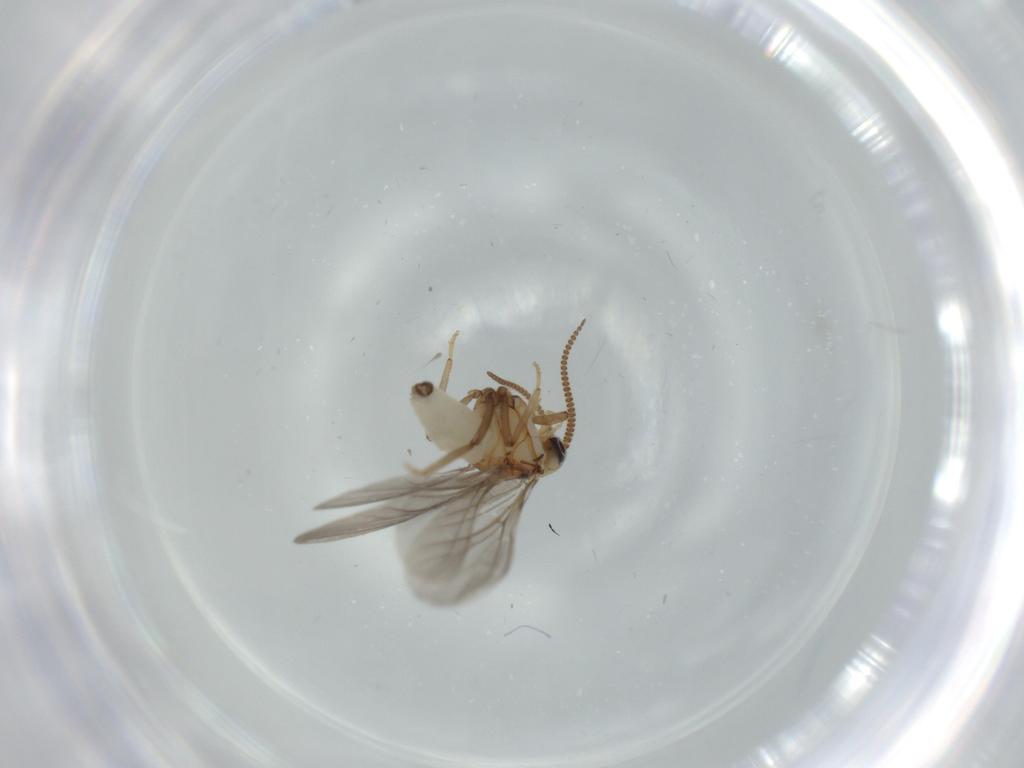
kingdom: Animalia
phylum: Arthropoda
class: Insecta
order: Neuroptera
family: Coniopterygidae
